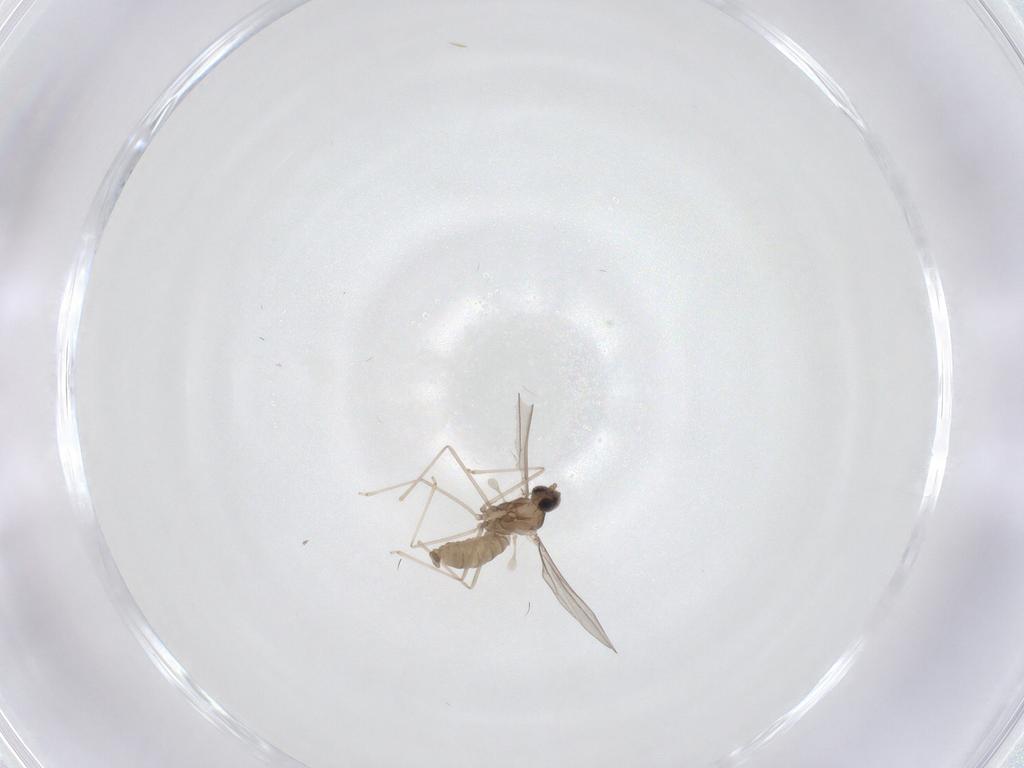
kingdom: Animalia
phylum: Arthropoda
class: Insecta
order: Diptera
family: Cecidomyiidae
